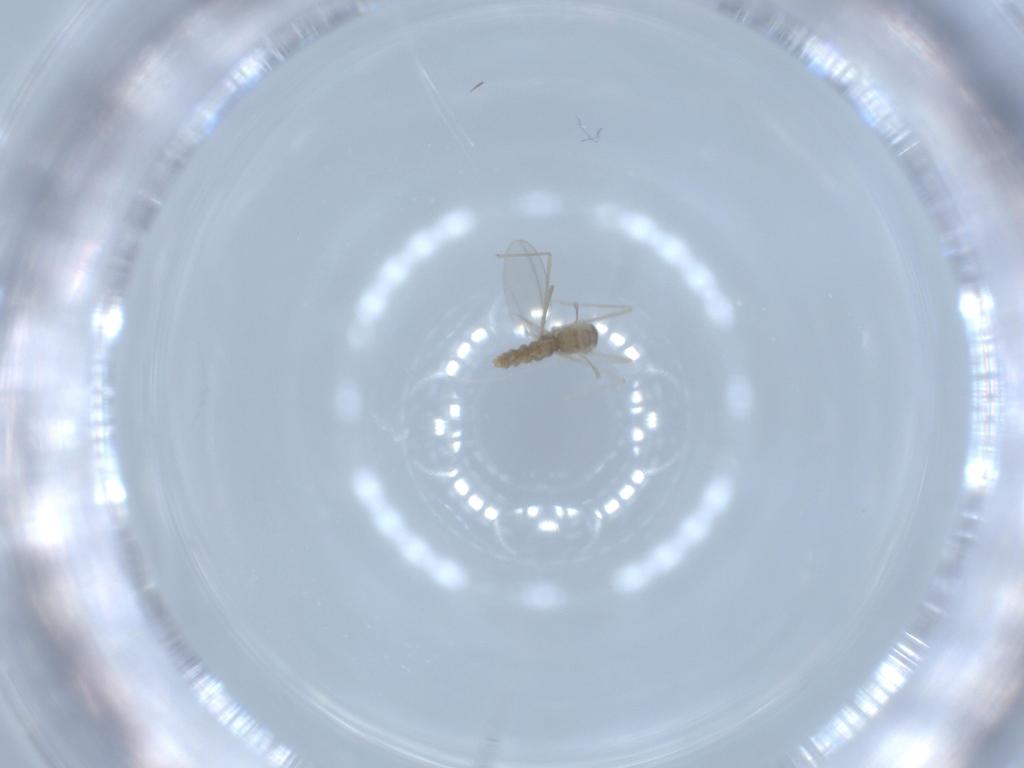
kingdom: Animalia
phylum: Arthropoda
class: Insecta
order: Diptera
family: Cecidomyiidae
